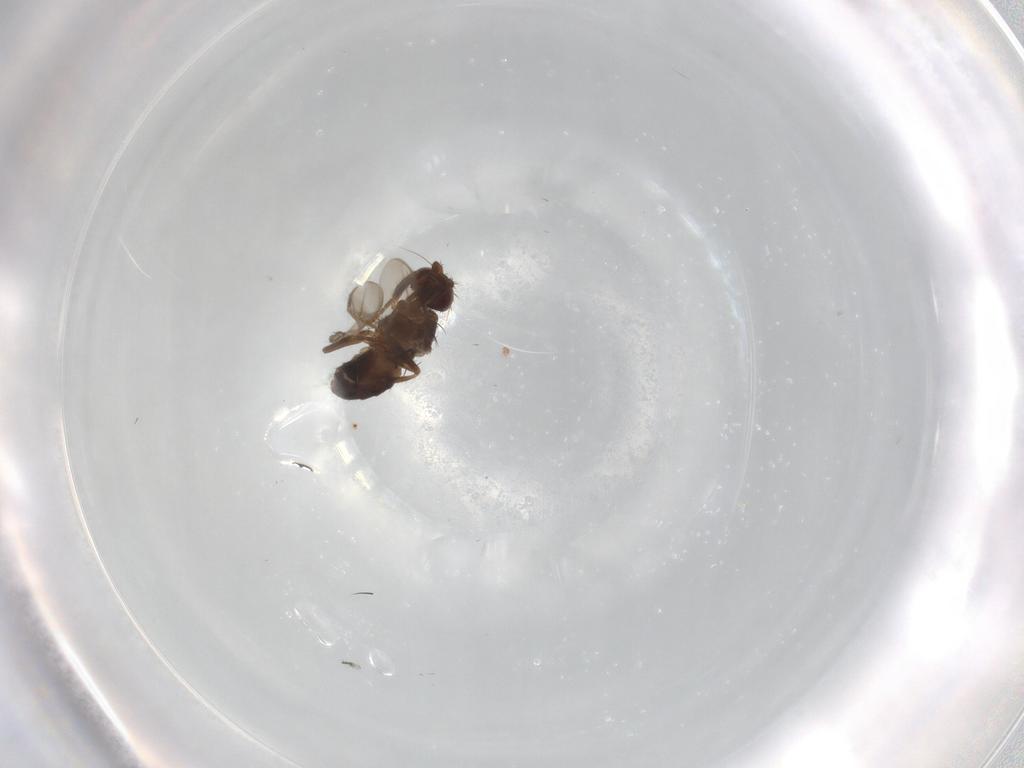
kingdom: Animalia
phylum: Arthropoda
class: Insecta
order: Diptera
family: Sphaeroceridae
